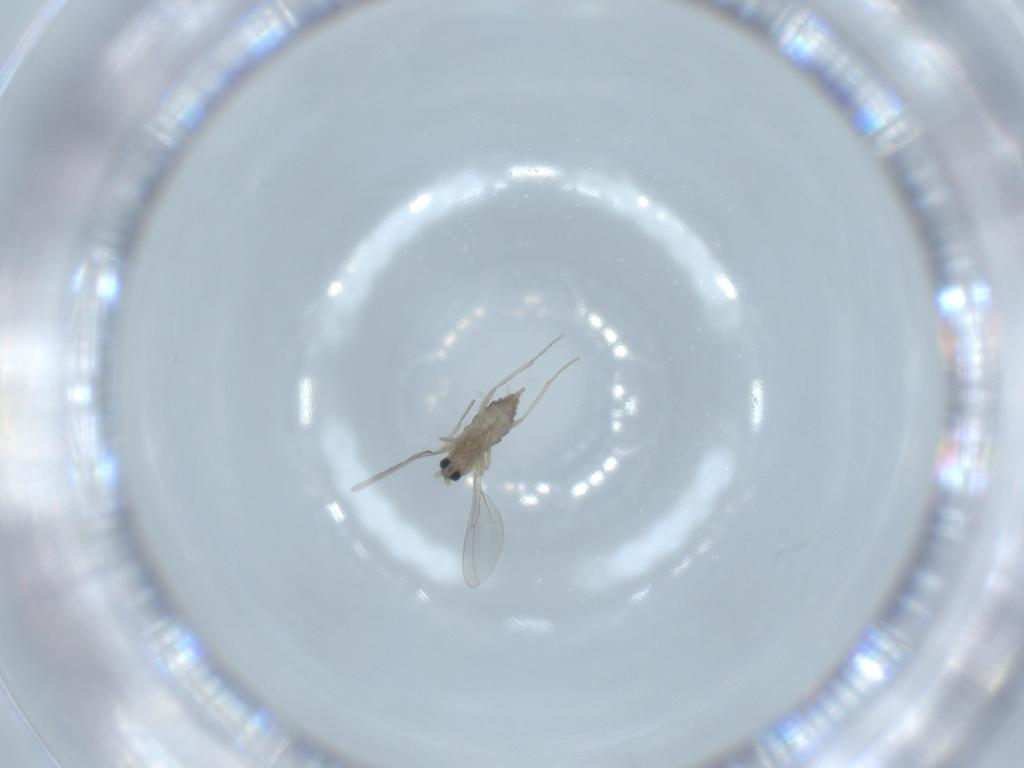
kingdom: Animalia
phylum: Arthropoda
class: Insecta
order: Diptera
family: Cecidomyiidae
